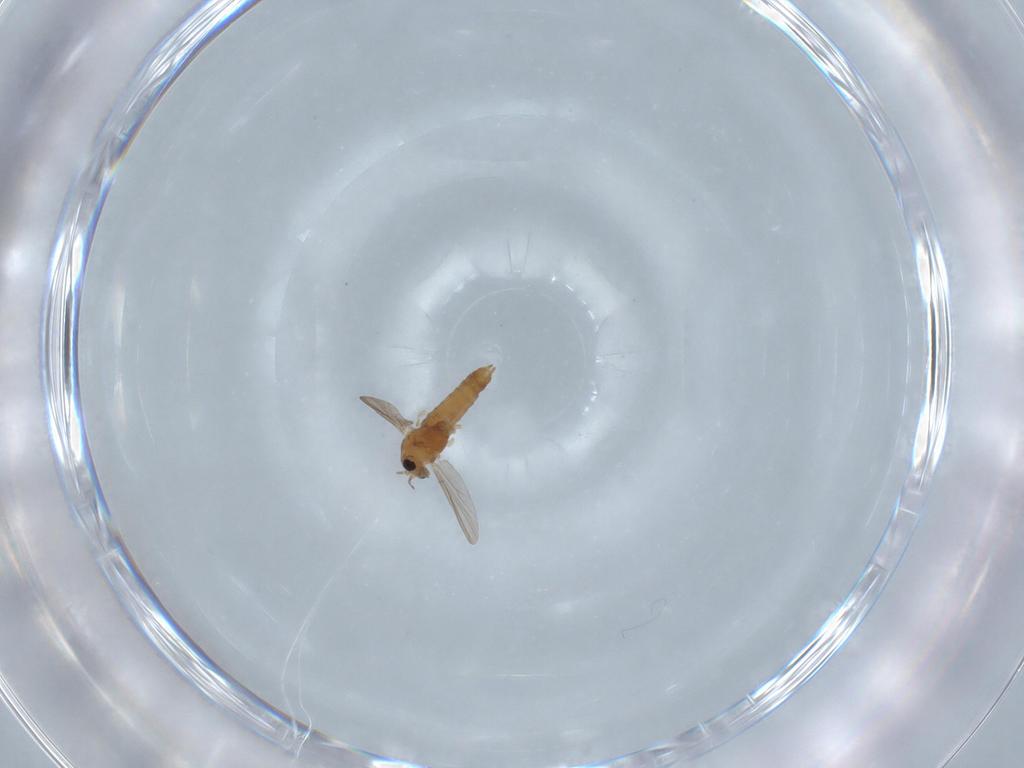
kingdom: Animalia
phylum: Arthropoda
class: Insecta
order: Diptera
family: Chironomidae
